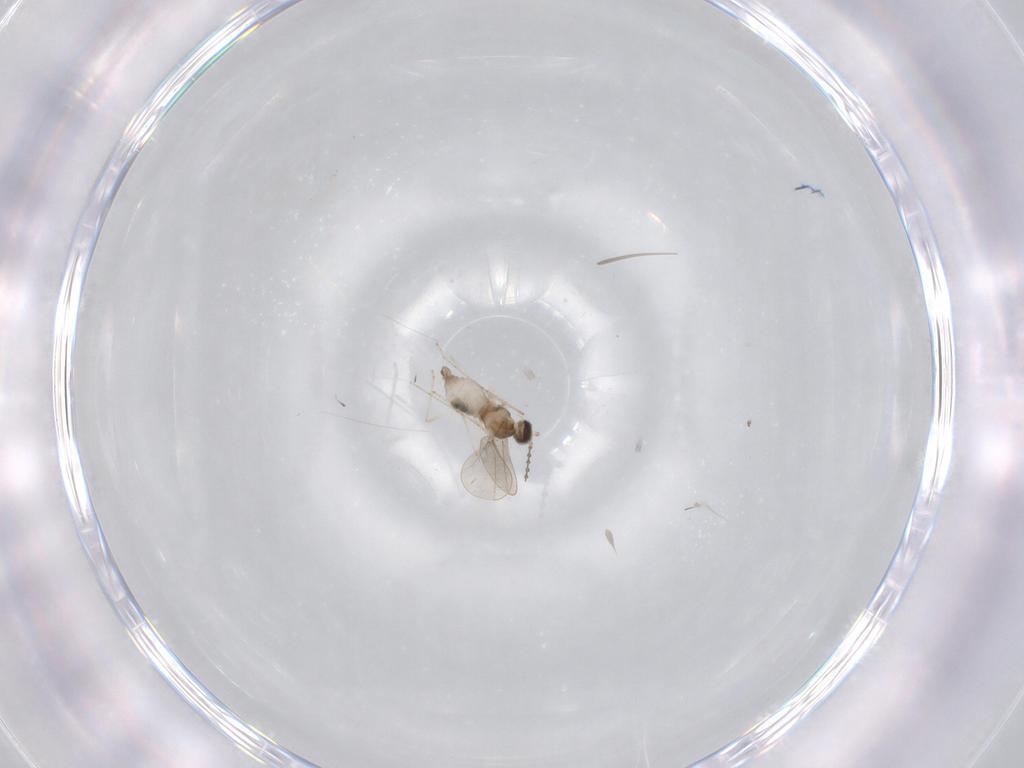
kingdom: Animalia
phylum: Arthropoda
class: Insecta
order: Diptera
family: Cecidomyiidae
